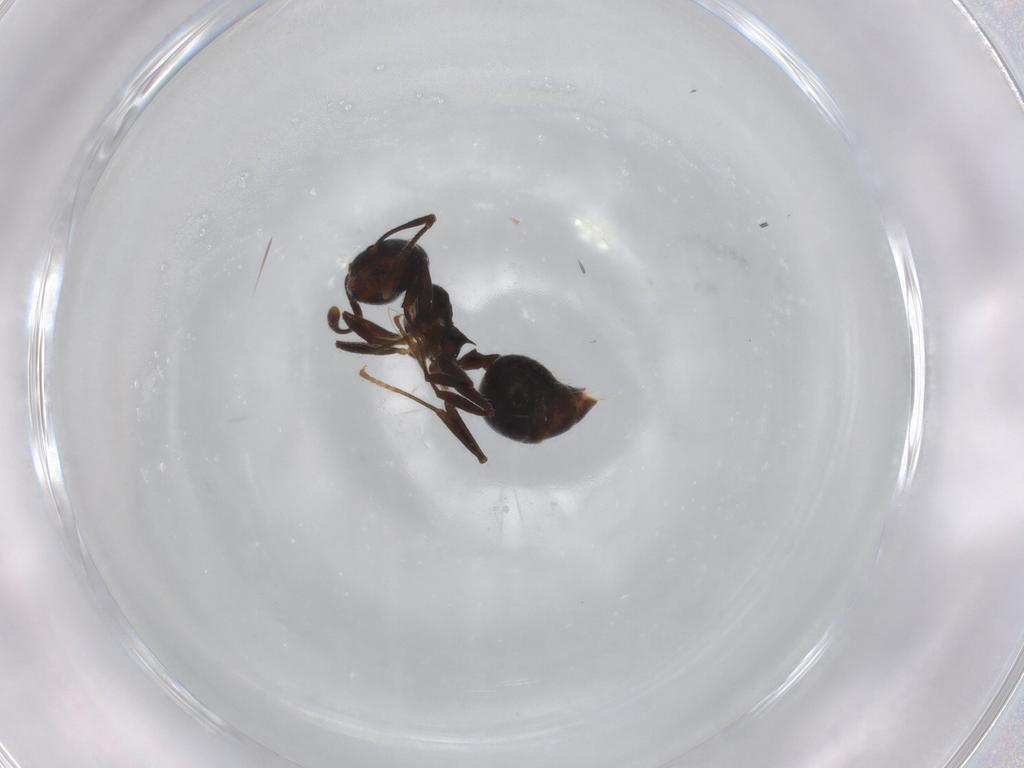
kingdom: Animalia
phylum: Arthropoda
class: Insecta
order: Hymenoptera
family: Formicidae
